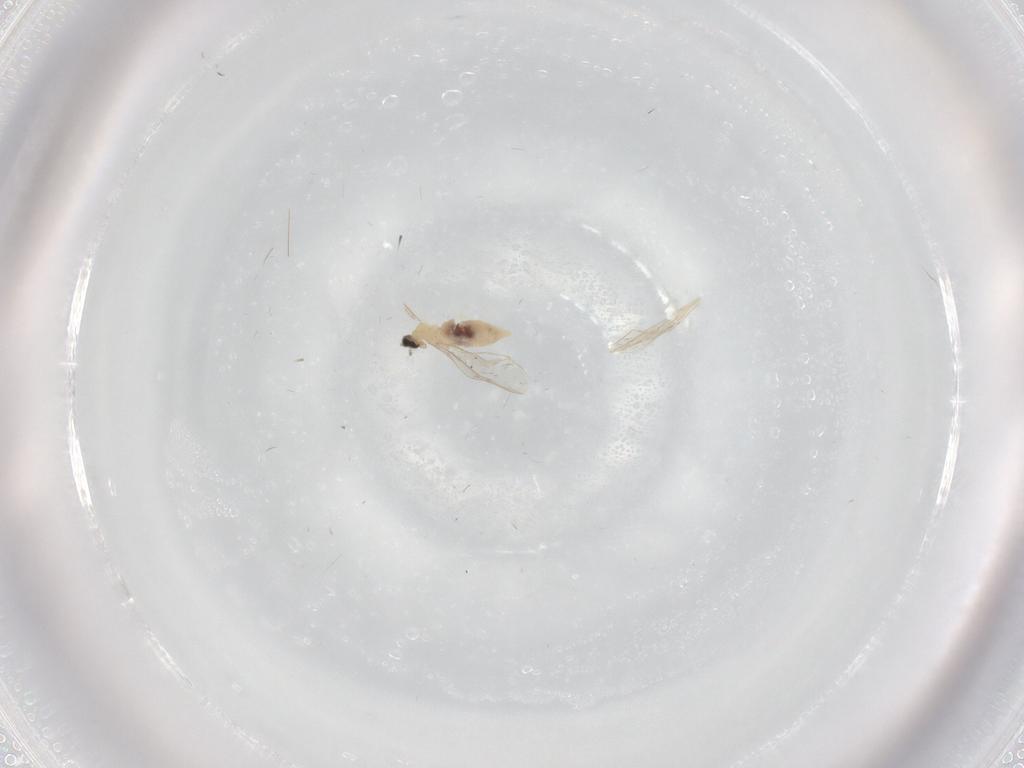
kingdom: Animalia
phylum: Arthropoda
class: Insecta
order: Diptera
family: Cecidomyiidae
